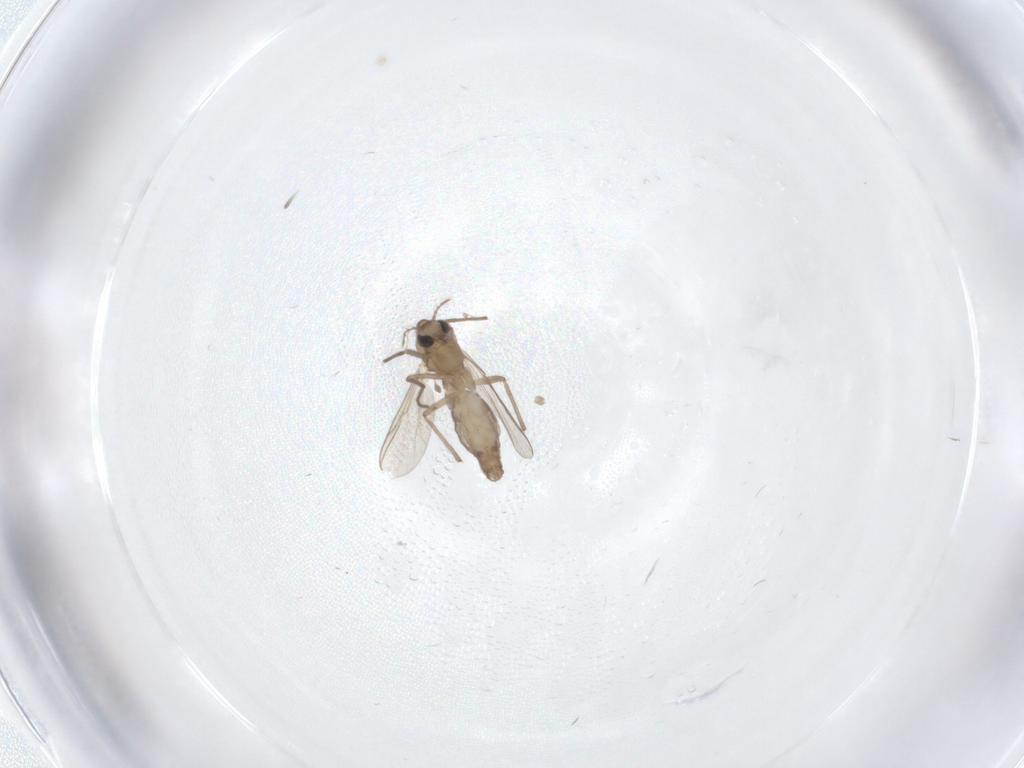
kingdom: Animalia
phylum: Arthropoda
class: Insecta
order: Diptera
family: Chironomidae
